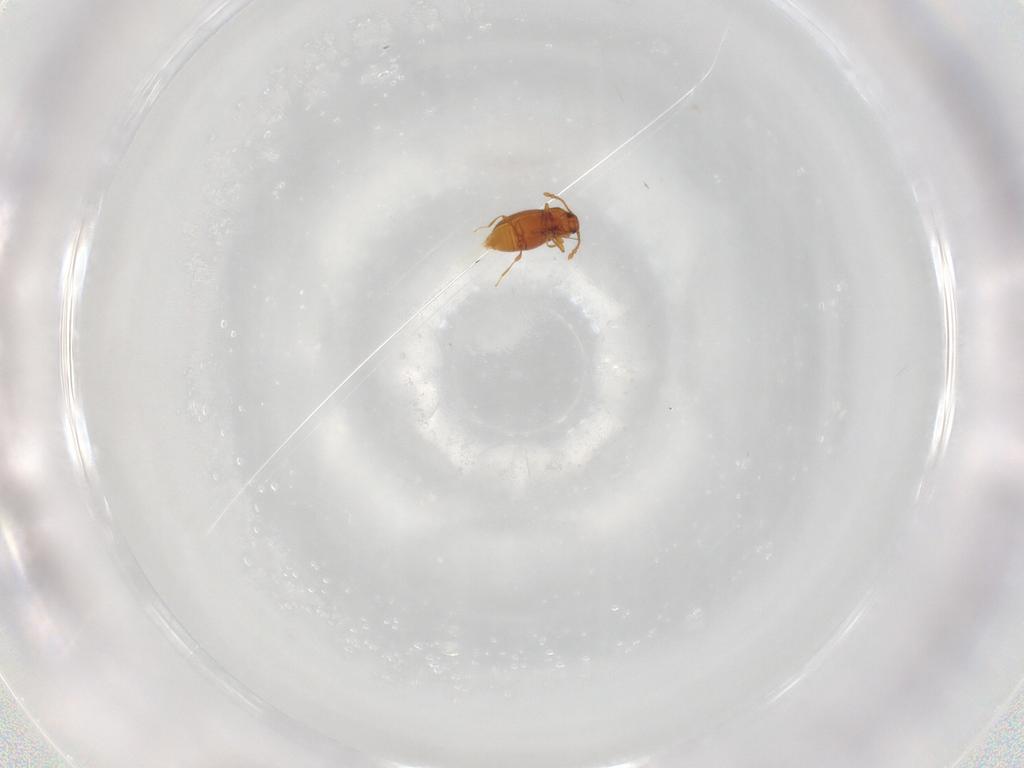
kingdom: Animalia
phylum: Arthropoda
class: Insecta
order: Coleoptera
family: Staphylinidae
